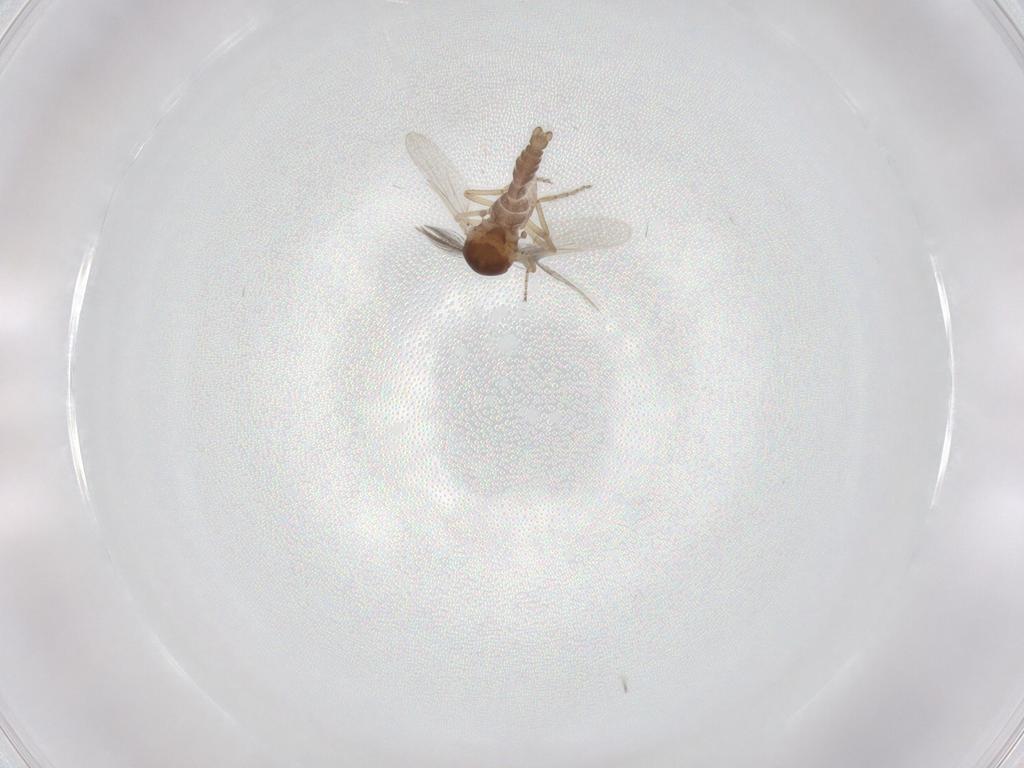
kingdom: Animalia
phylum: Arthropoda
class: Insecta
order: Diptera
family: Ceratopogonidae
